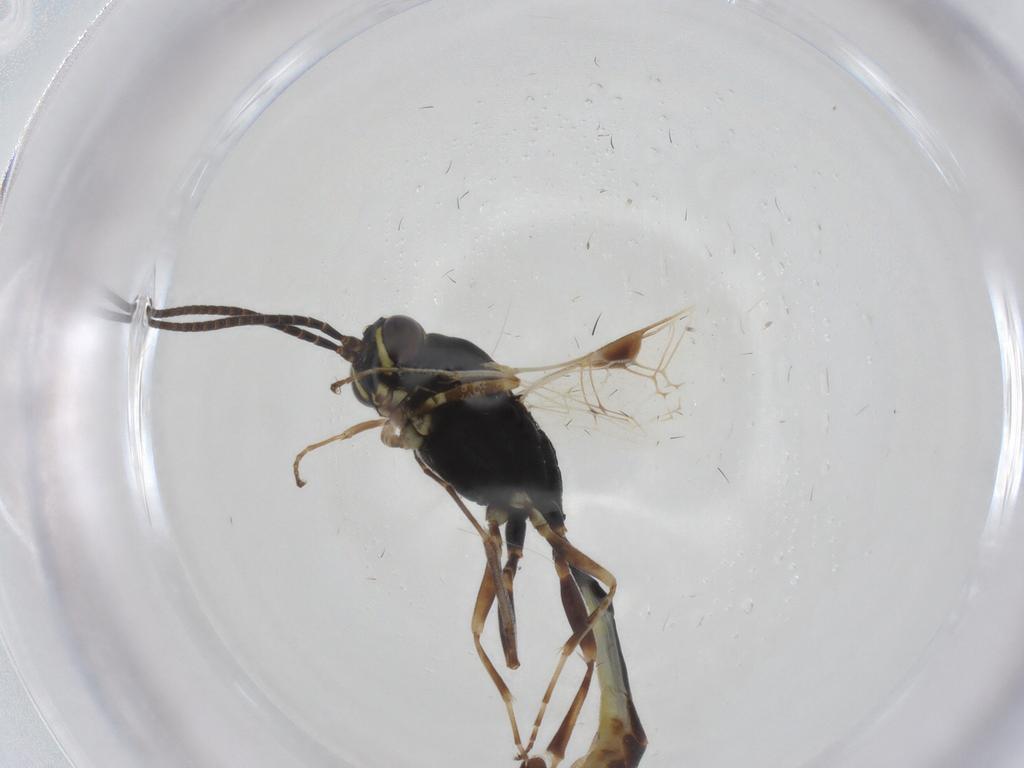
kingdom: Animalia
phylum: Arthropoda
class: Insecta
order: Hymenoptera
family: Ichneumonidae
